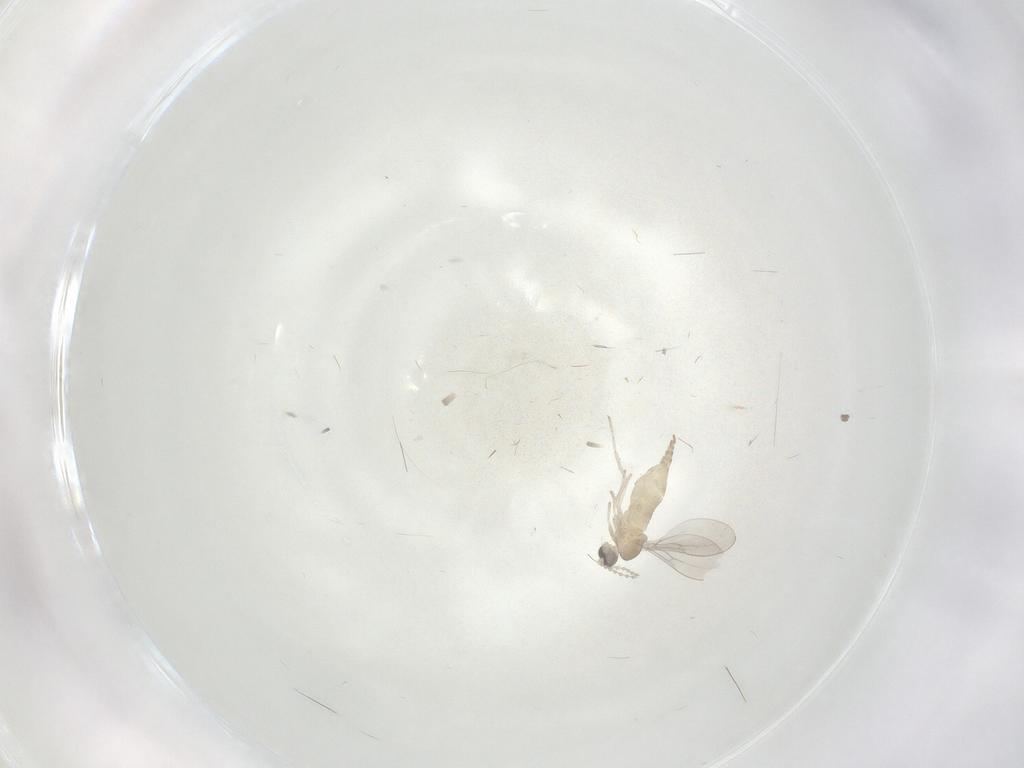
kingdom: Animalia
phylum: Arthropoda
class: Insecta
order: Diptera
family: Cecidomyiidae
